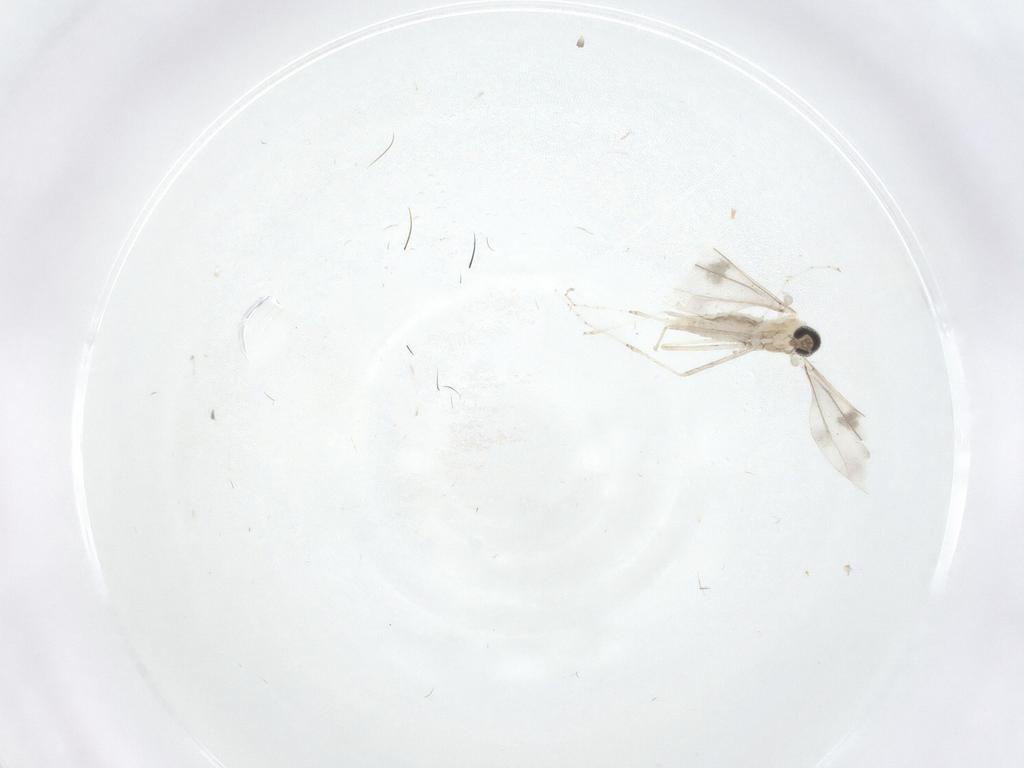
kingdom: Animalia
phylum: Arthropoda
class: Insecta
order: Diptera
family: Cecidomyiidae
